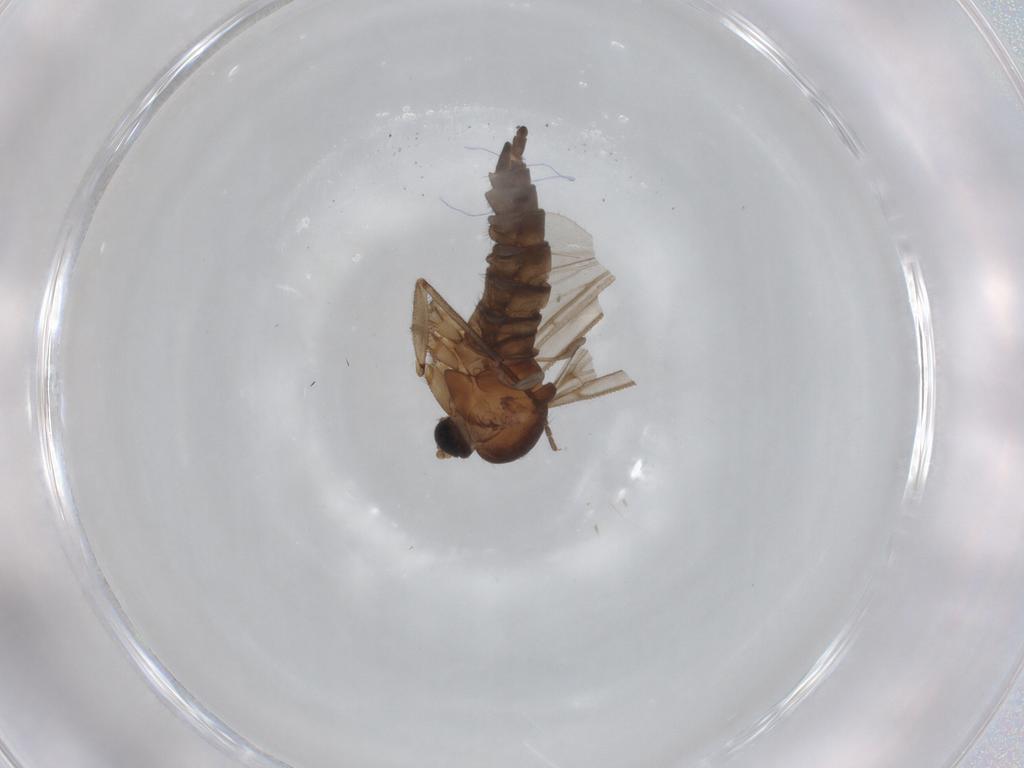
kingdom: Animalia
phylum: Arthropoda
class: Insecta
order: Diptera
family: Sciaridae
